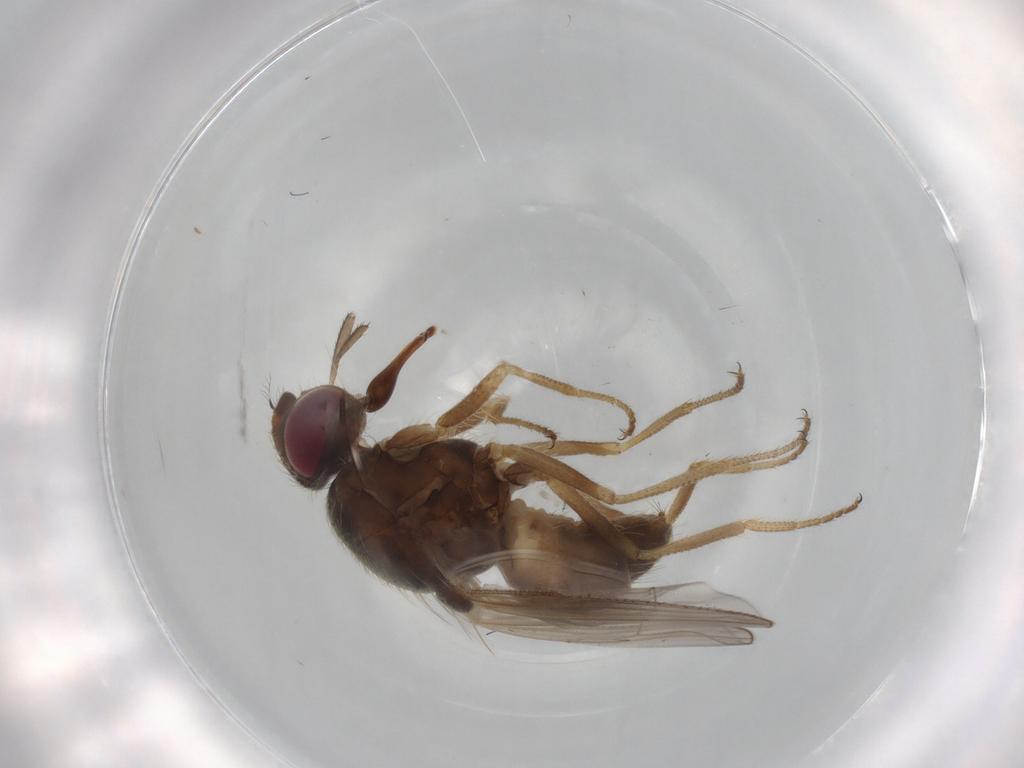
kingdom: Animalia
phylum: Arthropoda
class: Insecta
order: Diptera
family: Muscidae
